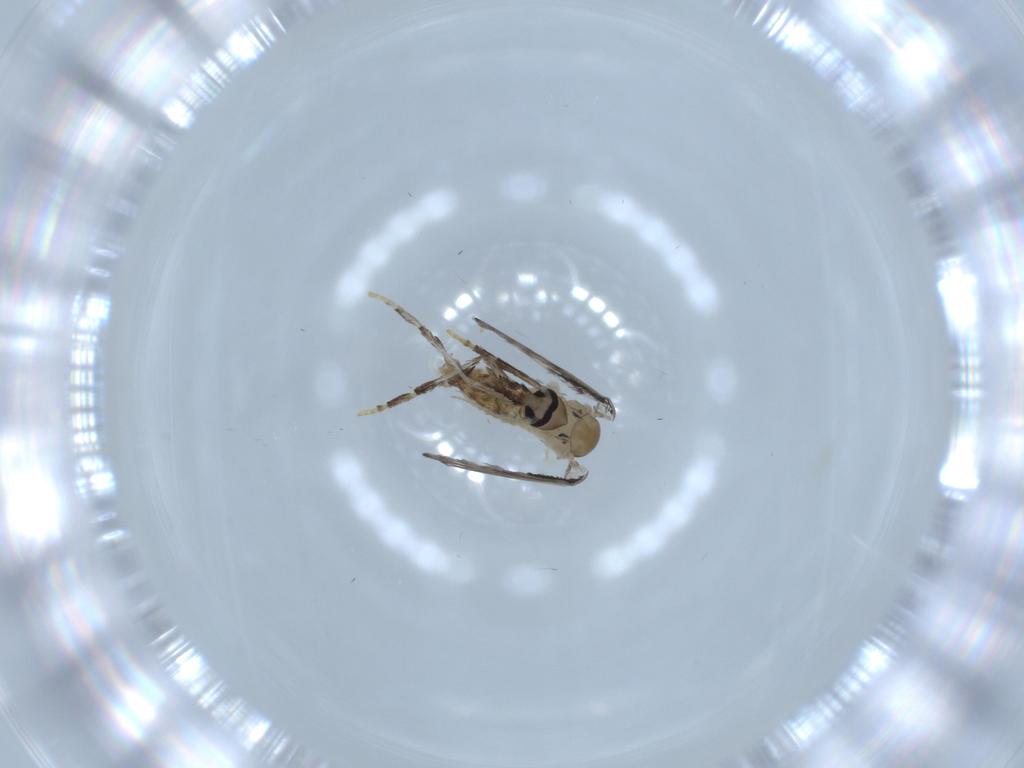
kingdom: Animalia
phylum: Arthropoda
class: Insecta
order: Diptera
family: Psychodidae
